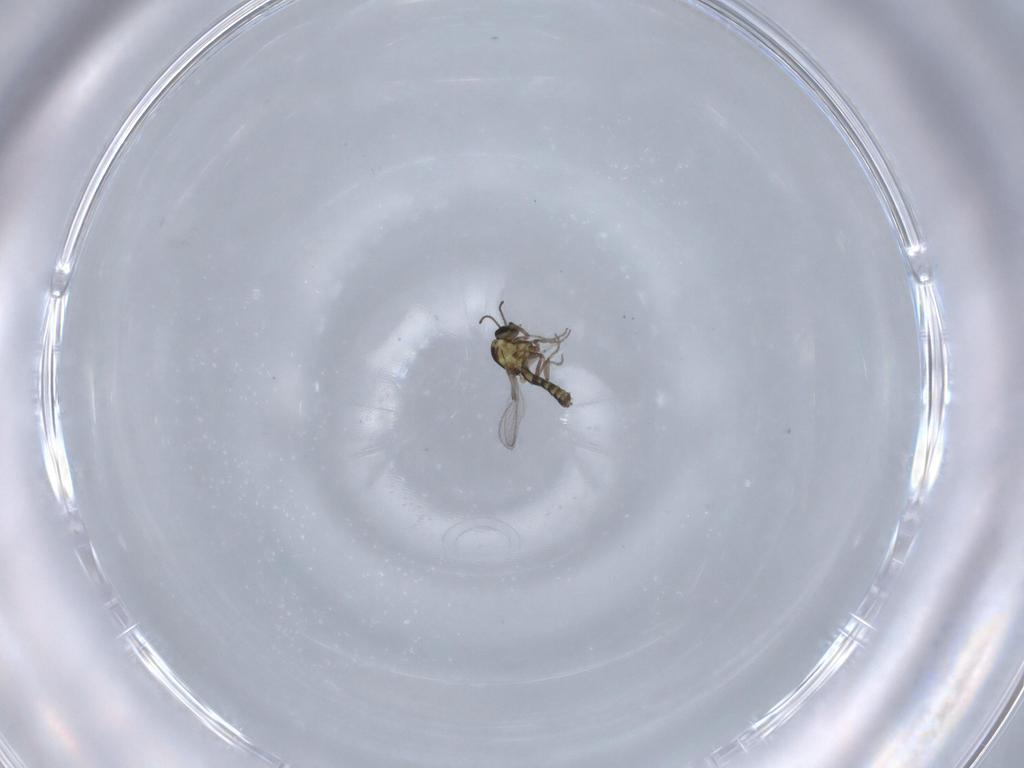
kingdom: Animalia
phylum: Arthropoda
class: Insecta
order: Diptera
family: Ceratopogonidae
